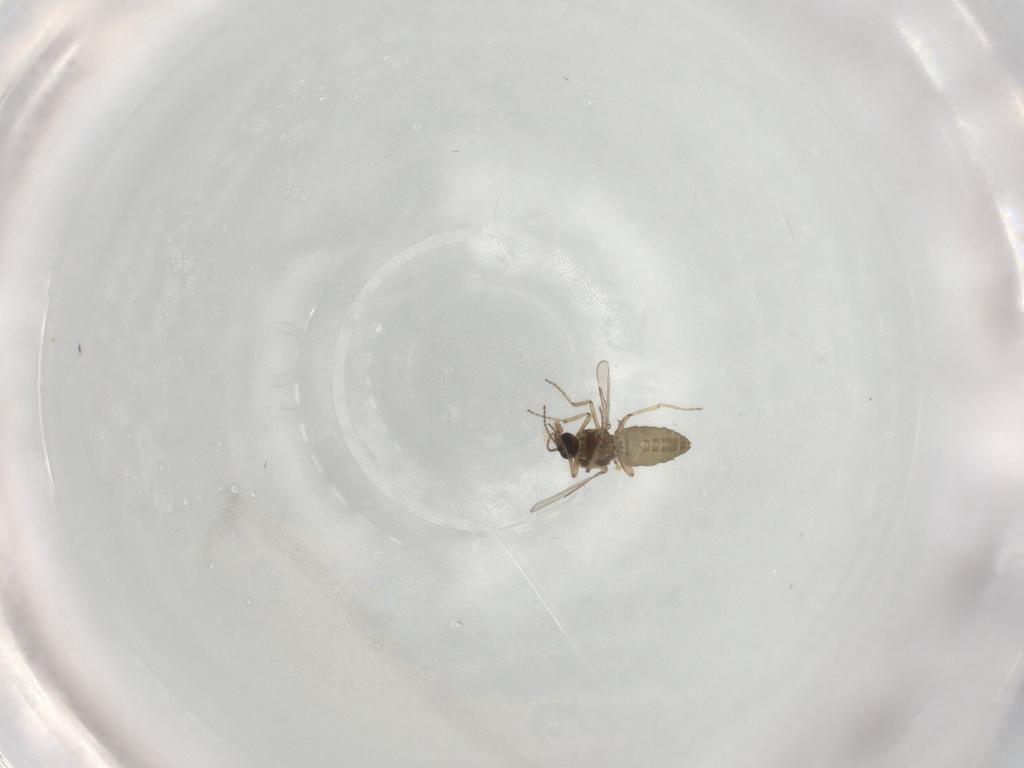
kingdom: Animalia
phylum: Arthropoda
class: Insecta
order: Diptera
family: Ceratopogonidae
